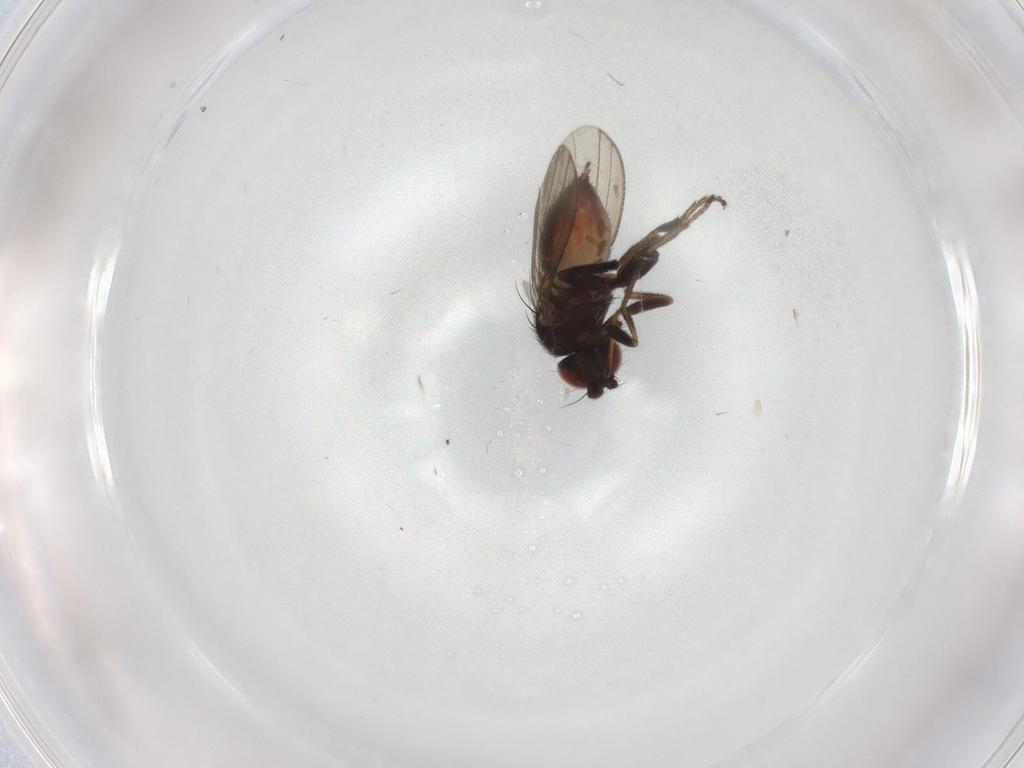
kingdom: Animalia
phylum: Arthropoda
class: Insecta
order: Diptera
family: Milichiidae
